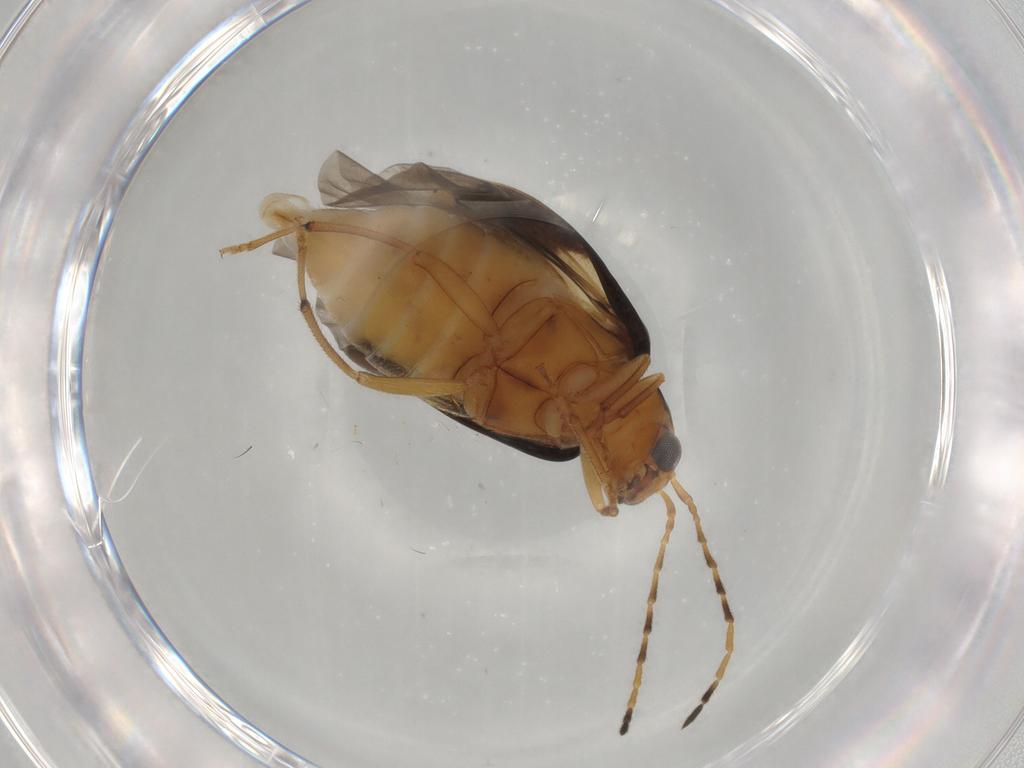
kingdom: Animalia
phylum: Arthropoda
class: Insecta
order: Coleoptera
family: Chrysomelidae
